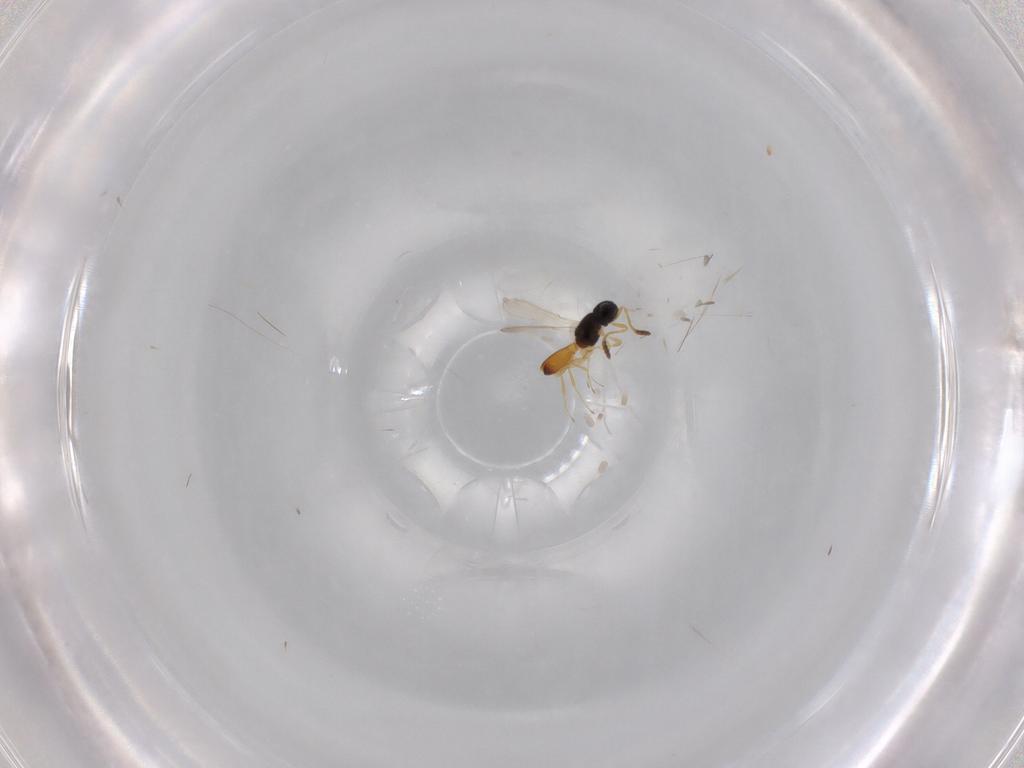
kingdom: Animalia
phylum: Arthropoda
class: Insecta
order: Hymenoptera
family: Scelionidae
